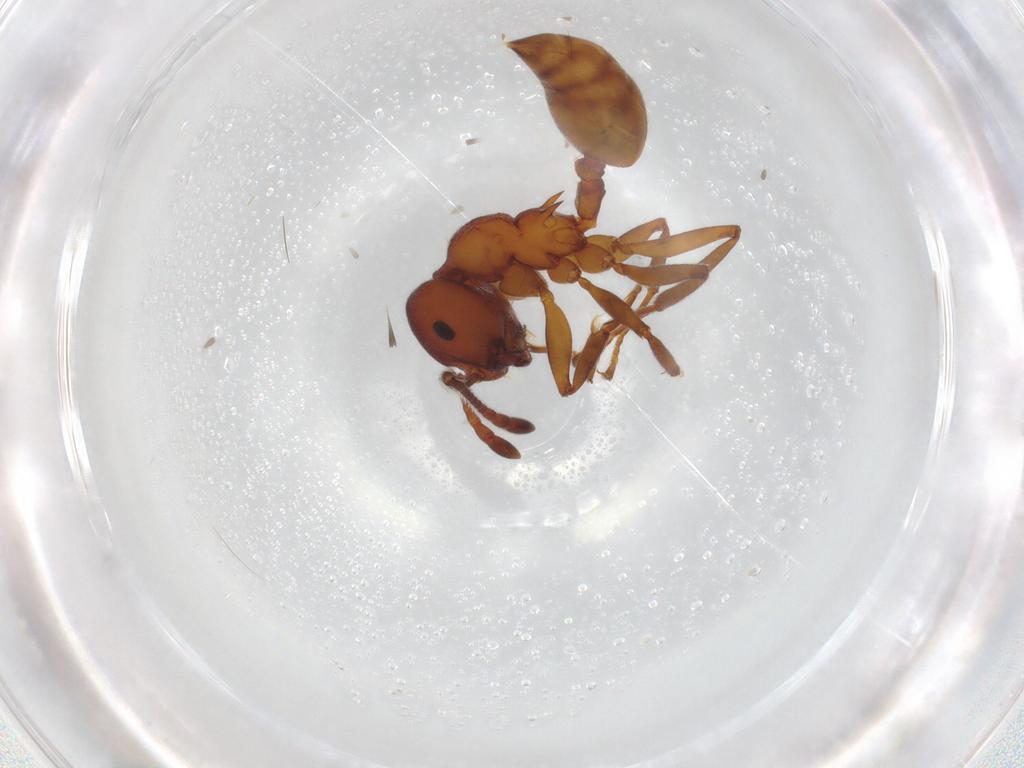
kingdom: Animalia
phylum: Arthropoda
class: Insecta
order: Hymenoptera
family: Formicidae
